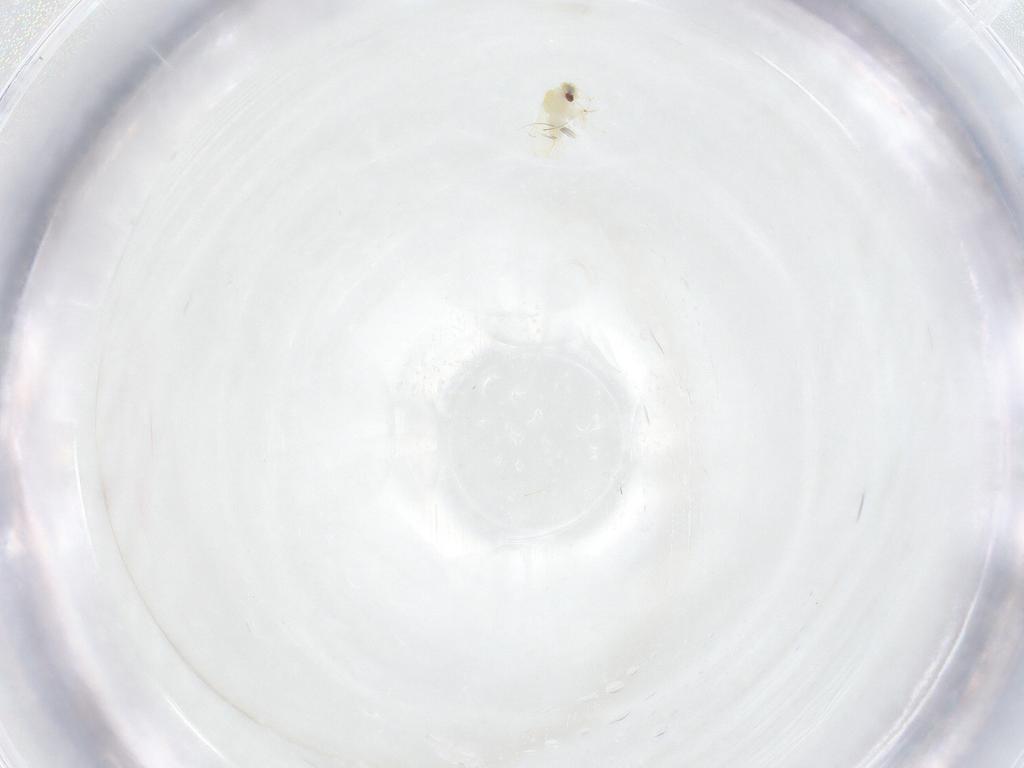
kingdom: Animalia
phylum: Arthropoda
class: Insecta
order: Hemiptera
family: Aleyrodidae
